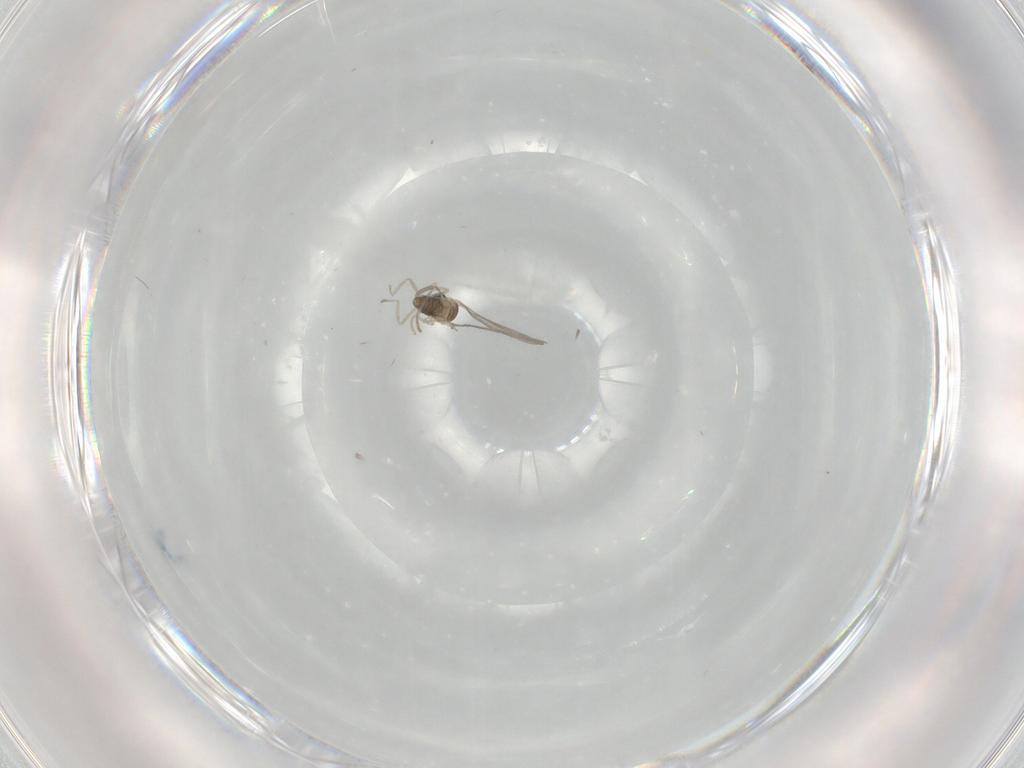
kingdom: Animalia
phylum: Arthropoda
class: Insecta
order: Diptera
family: Cecidomyiidae
